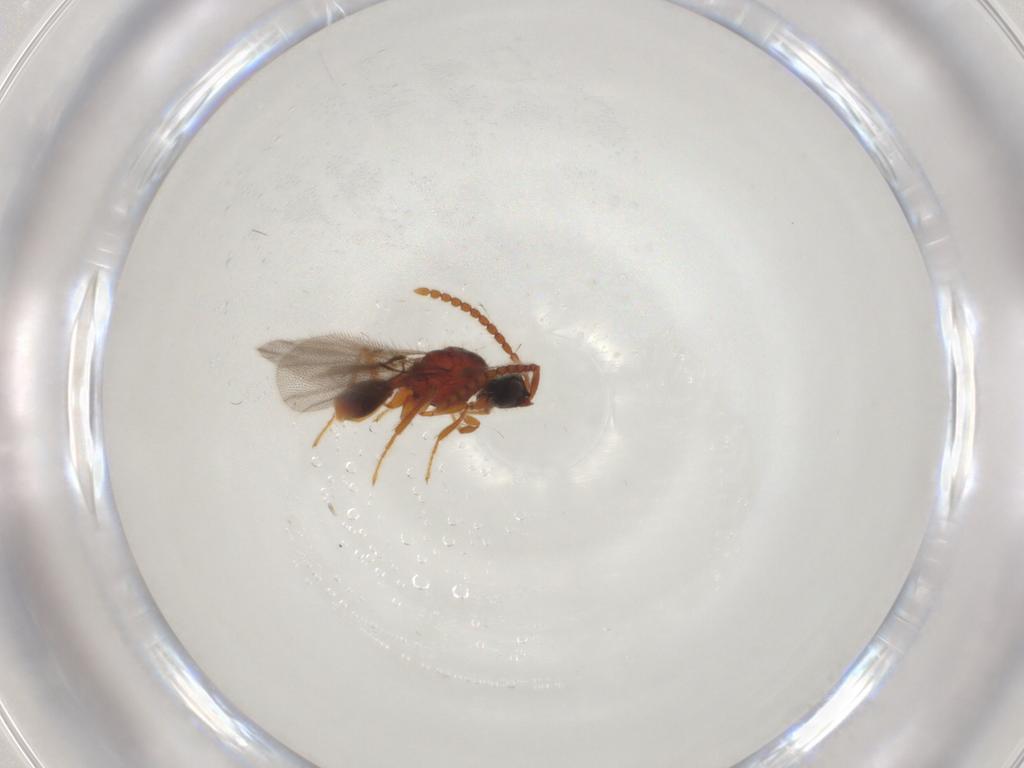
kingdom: Animalia
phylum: Arthropoda
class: Insecta
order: Hymenoptera
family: Diapriidae
